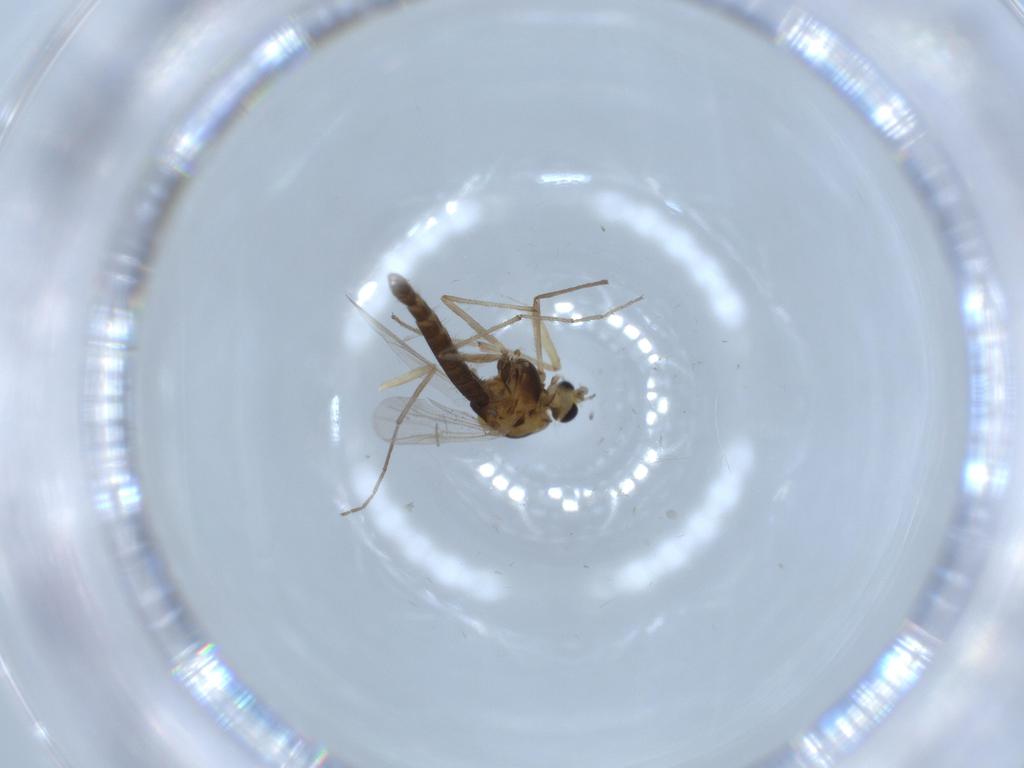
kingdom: Animalia
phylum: Arthropoda
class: Insecta
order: Diptera
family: Chironomidae
